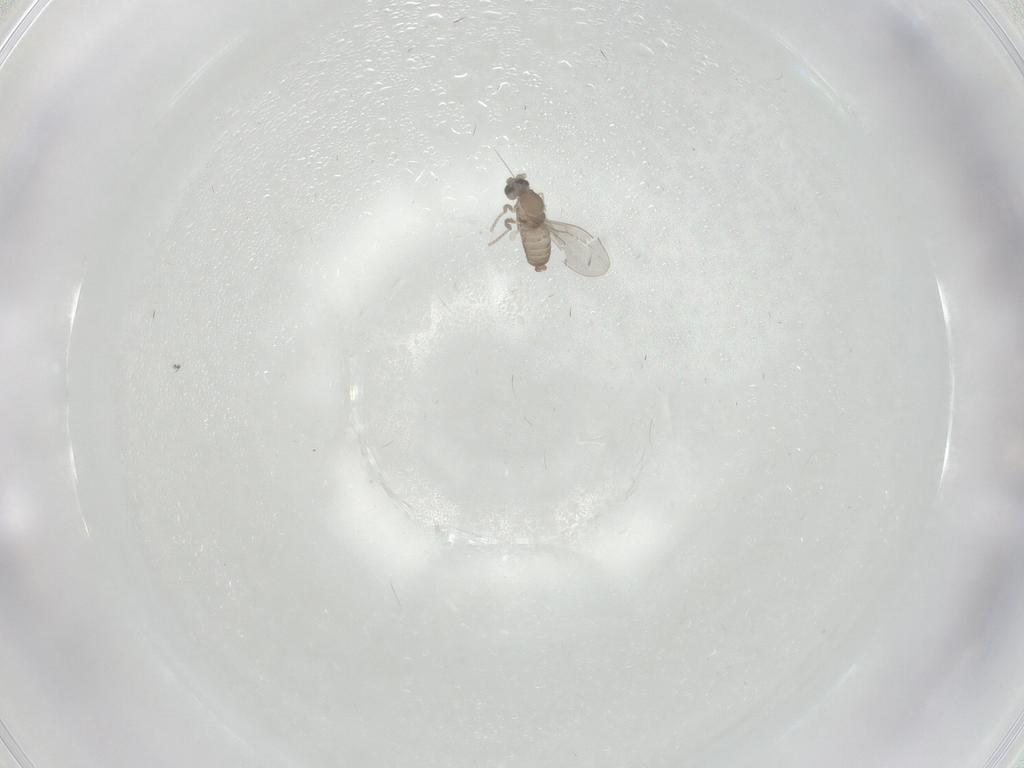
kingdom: Animalia
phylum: Arthropoda
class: Insecta
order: Diptera
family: Cecidomyiidae
